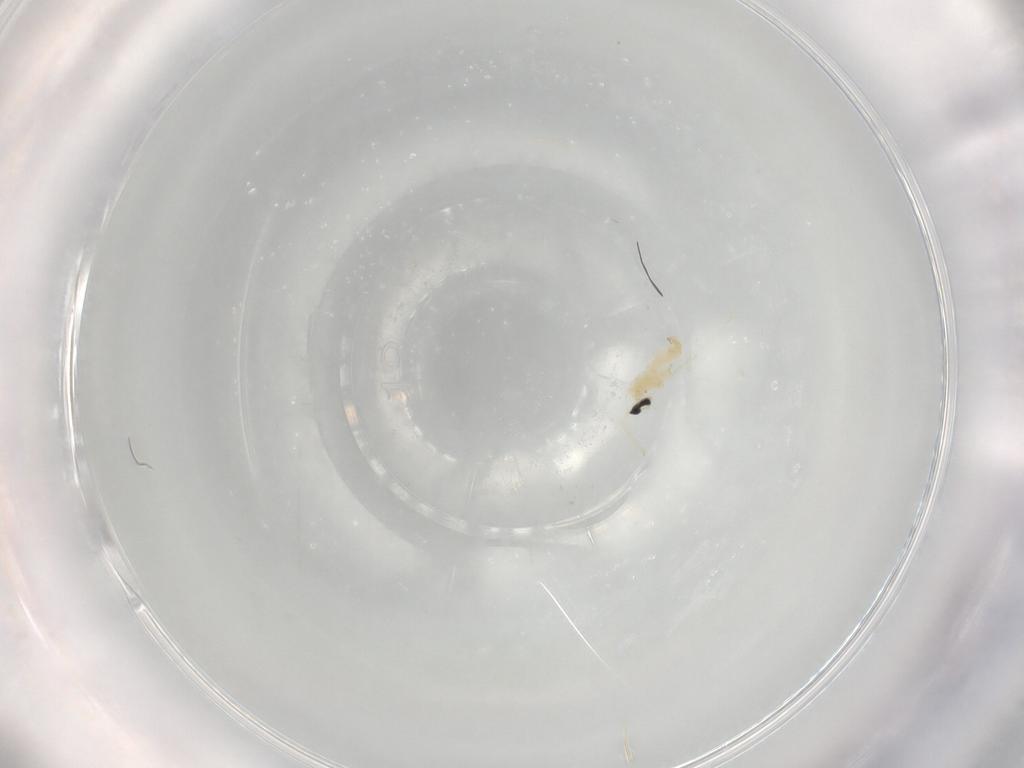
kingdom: Animalia
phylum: Arthropoda
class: Insecta
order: Diptera
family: Cecidomyiidae
